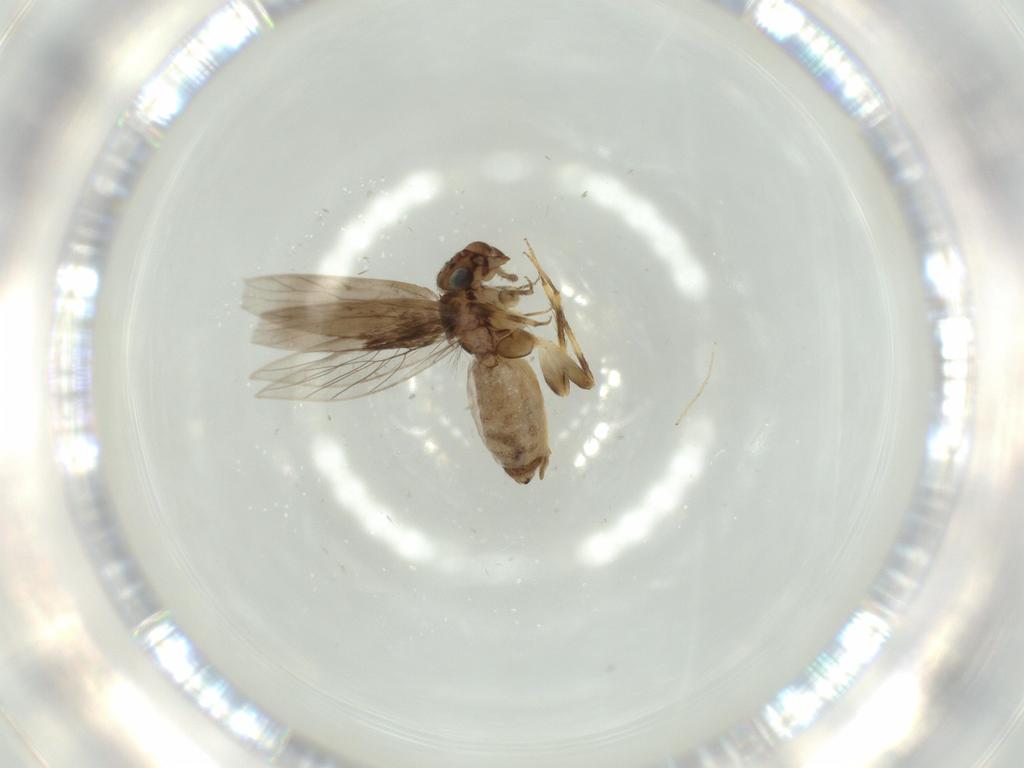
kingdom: Animalia
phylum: Arthropoda
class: Insecta
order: Psocodea
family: Lepidopsocidae
